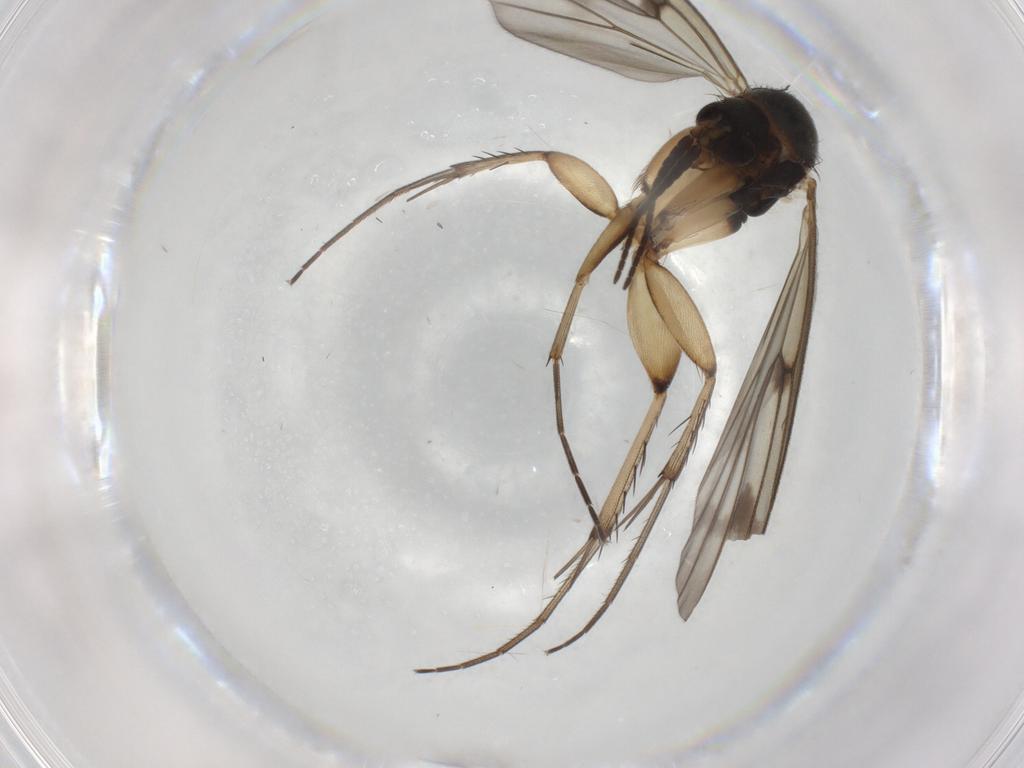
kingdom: Animalia
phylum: Arthropoda
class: Insecta
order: Diptera
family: Mycetophilidae
